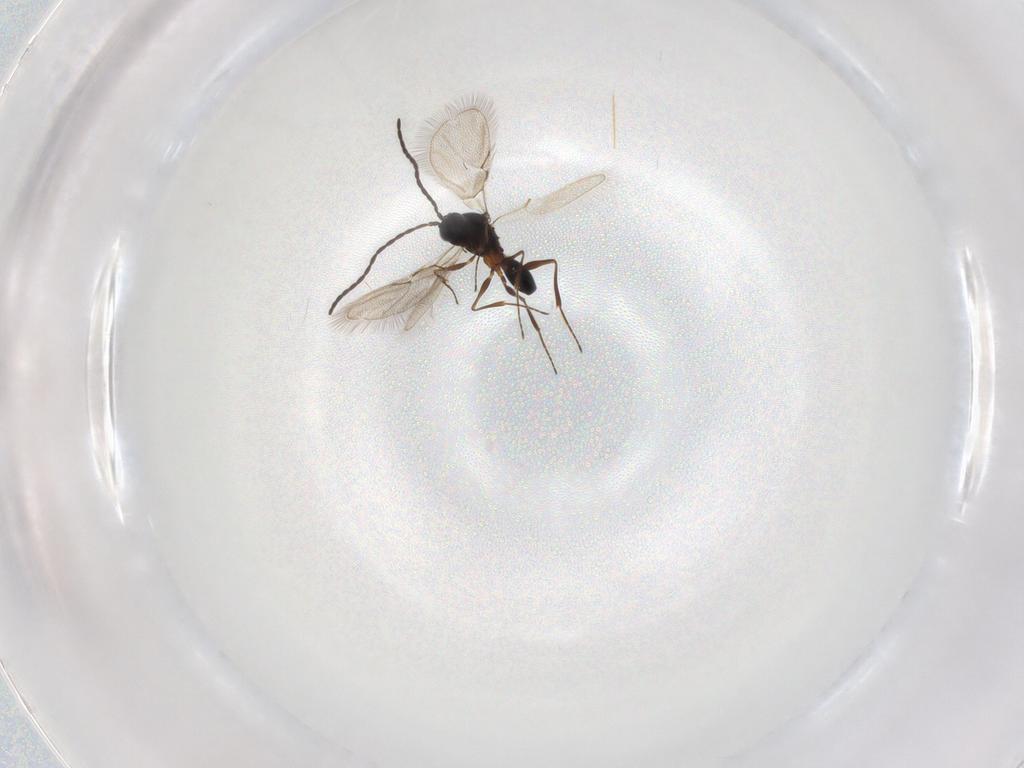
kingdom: Animalia
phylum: Arthropoda
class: Insecta
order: Hymenoptera
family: Figitidae
